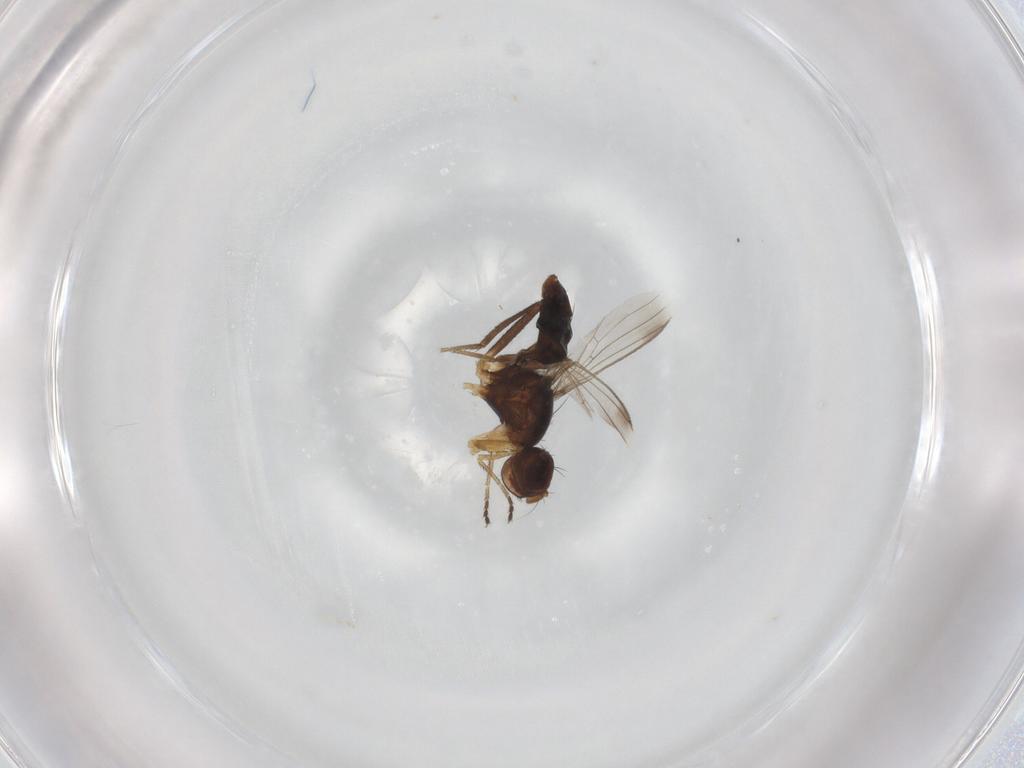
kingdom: Animalia
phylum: Arthropoda
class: Insecta
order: Diptera
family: Sepsidae
